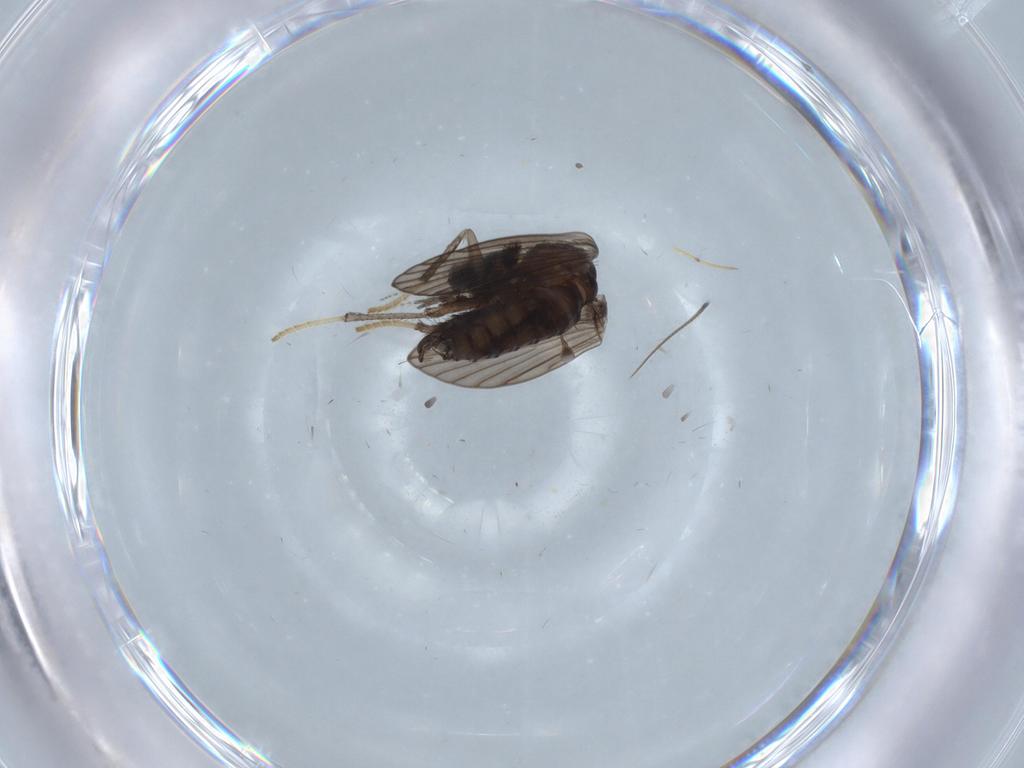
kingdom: Animalia
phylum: Arthropoda
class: Insecta
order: Diptera
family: Psychodidae
